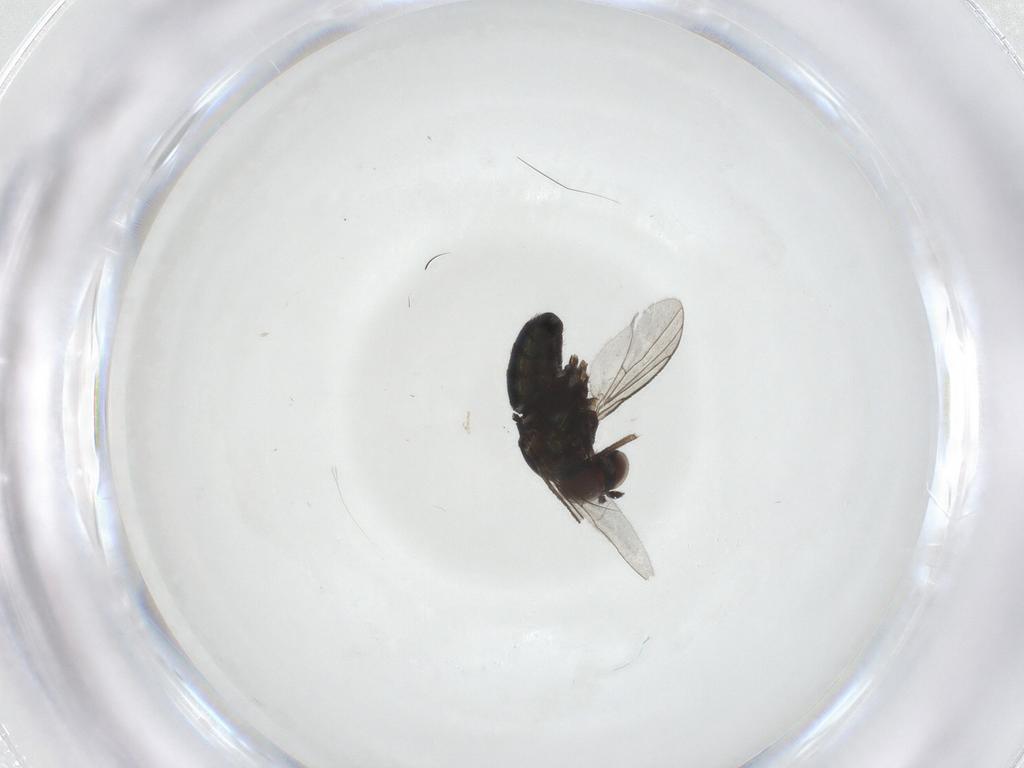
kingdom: Animalia
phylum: Arthropoda
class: Insecta
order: Diptera
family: Dolichopodidae
